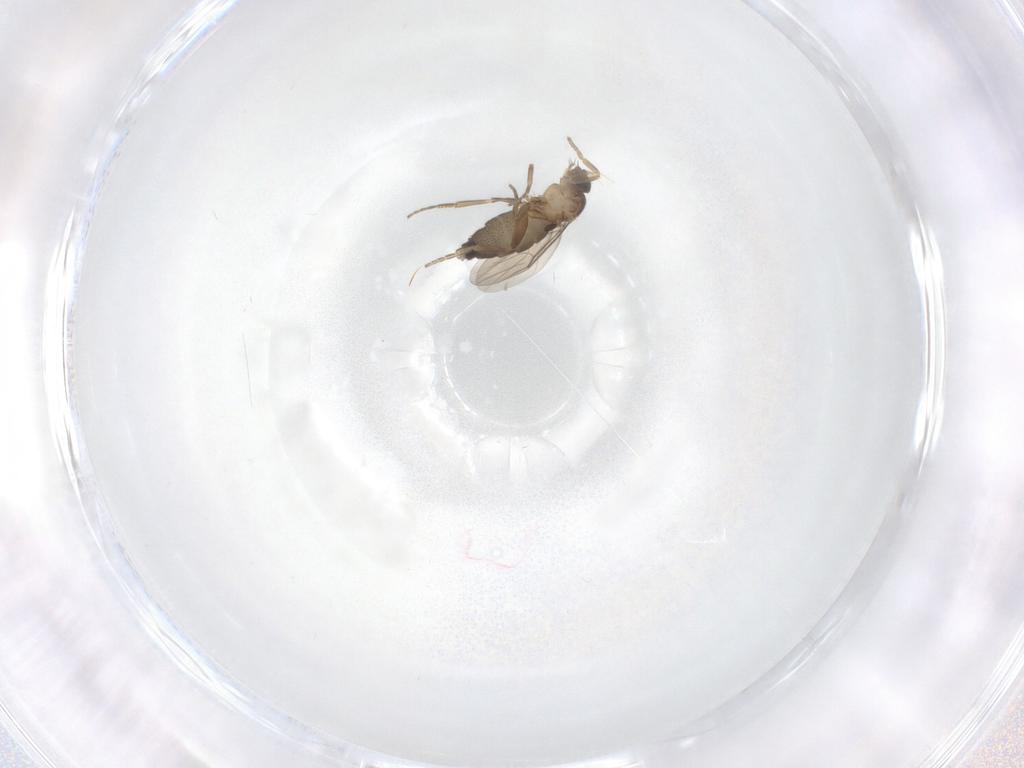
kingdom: Animalia
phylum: Arthropoda
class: Insecta
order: Diptera
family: Phoridae
